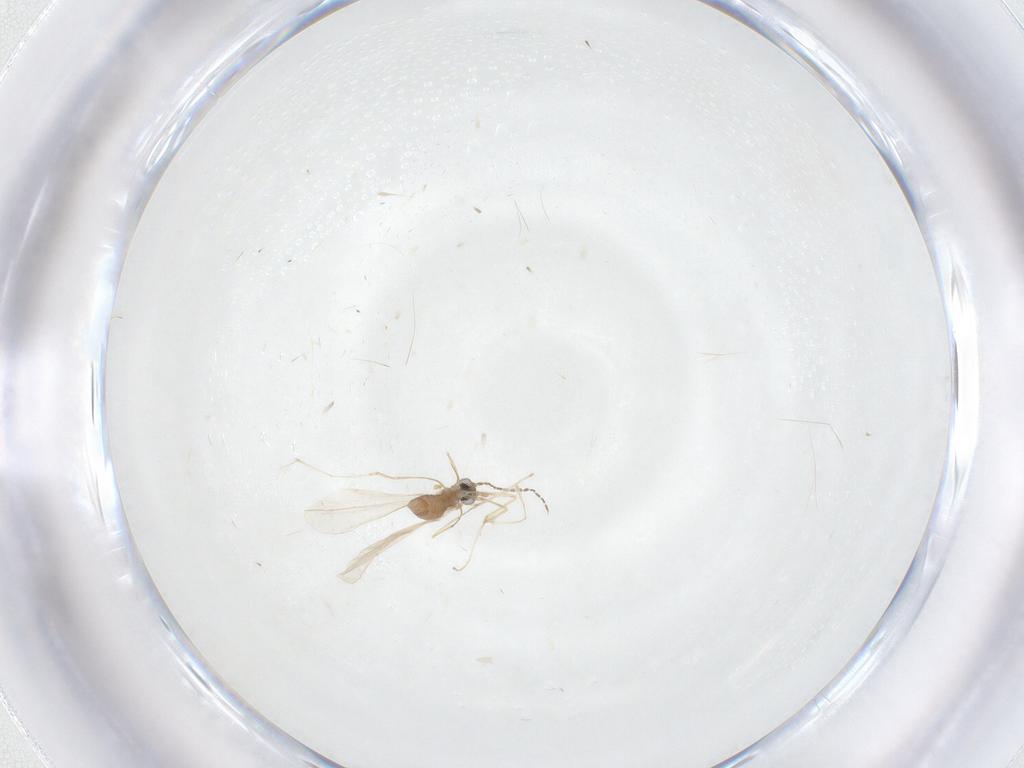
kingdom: Animalia
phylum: Arthropoda
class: Insecta
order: Diptera
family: Cecidomyiidae
